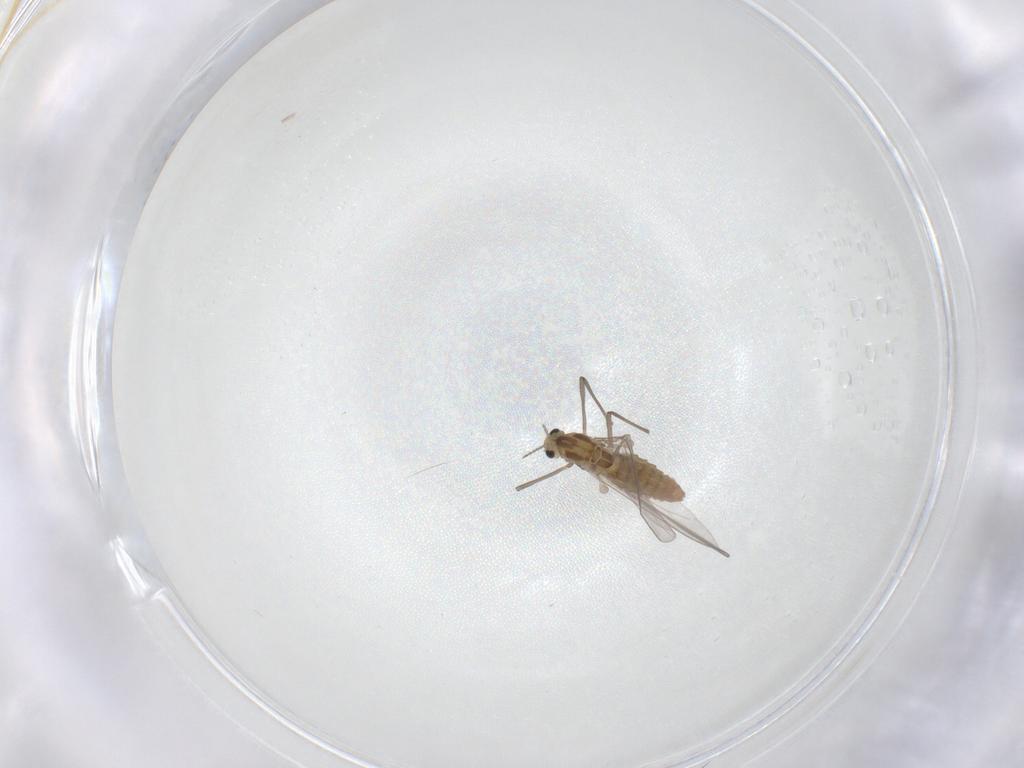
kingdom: Animalia
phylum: Arthropoda
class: Insecta
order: Diptera
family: Chironomidae
